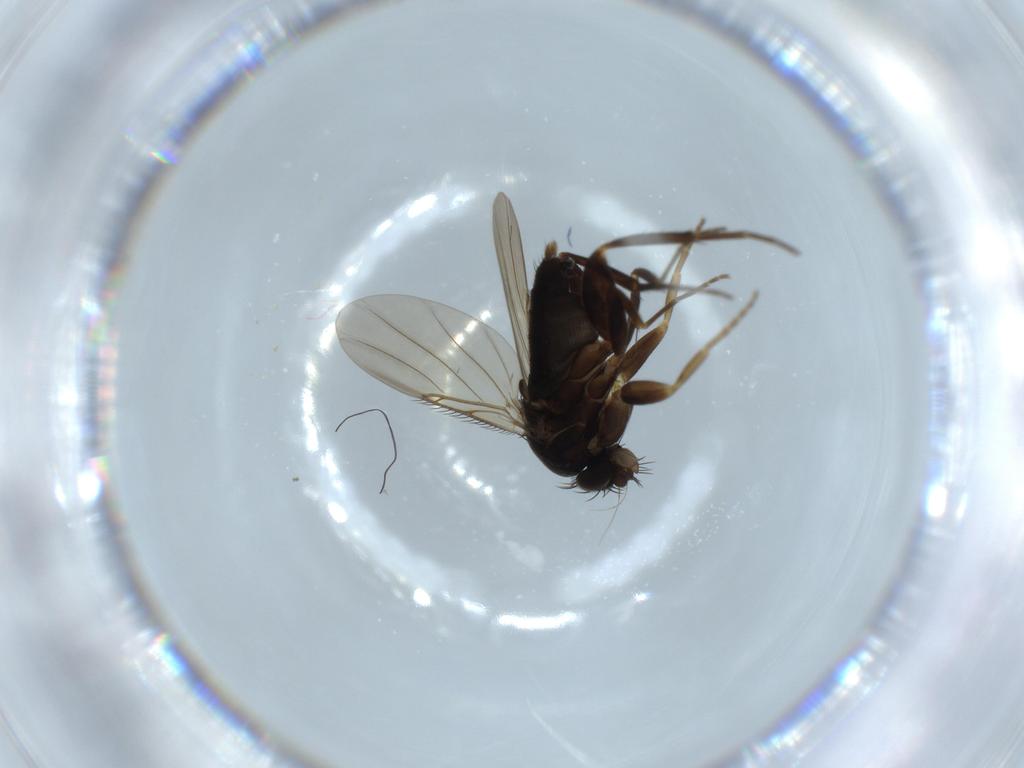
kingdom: Animalia
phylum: Arthropoda
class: Insecta
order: Diptera
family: Phoridae
